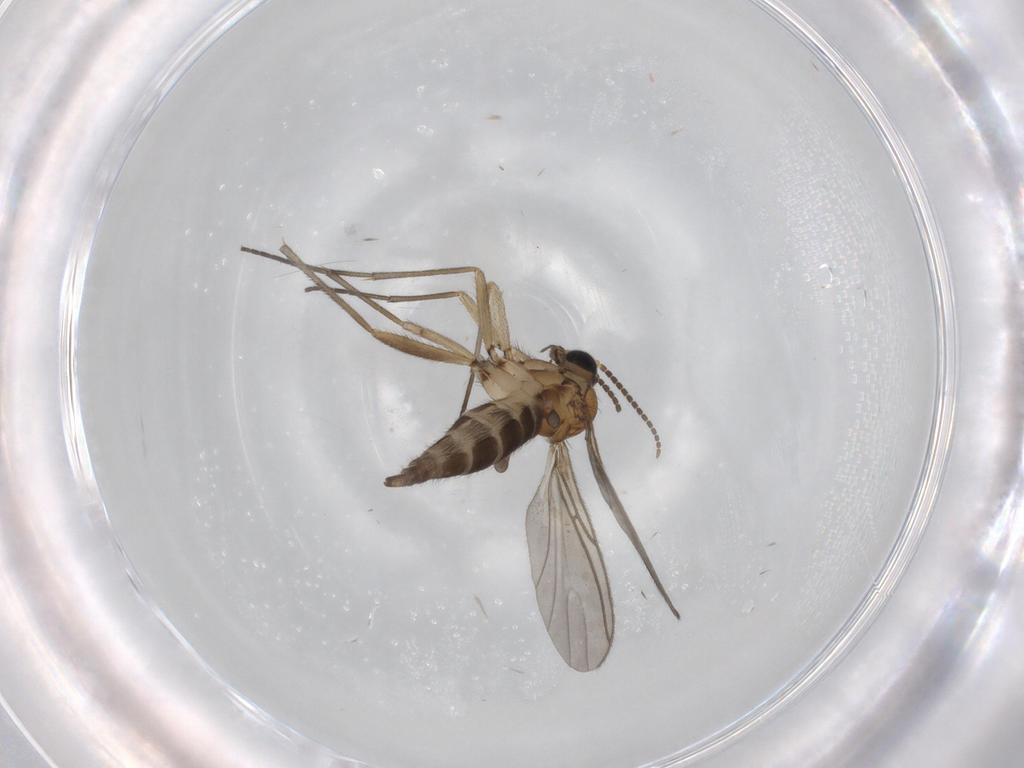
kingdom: Animalia
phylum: Arthropoda
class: Insecta
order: Diptera
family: Sciaridae
